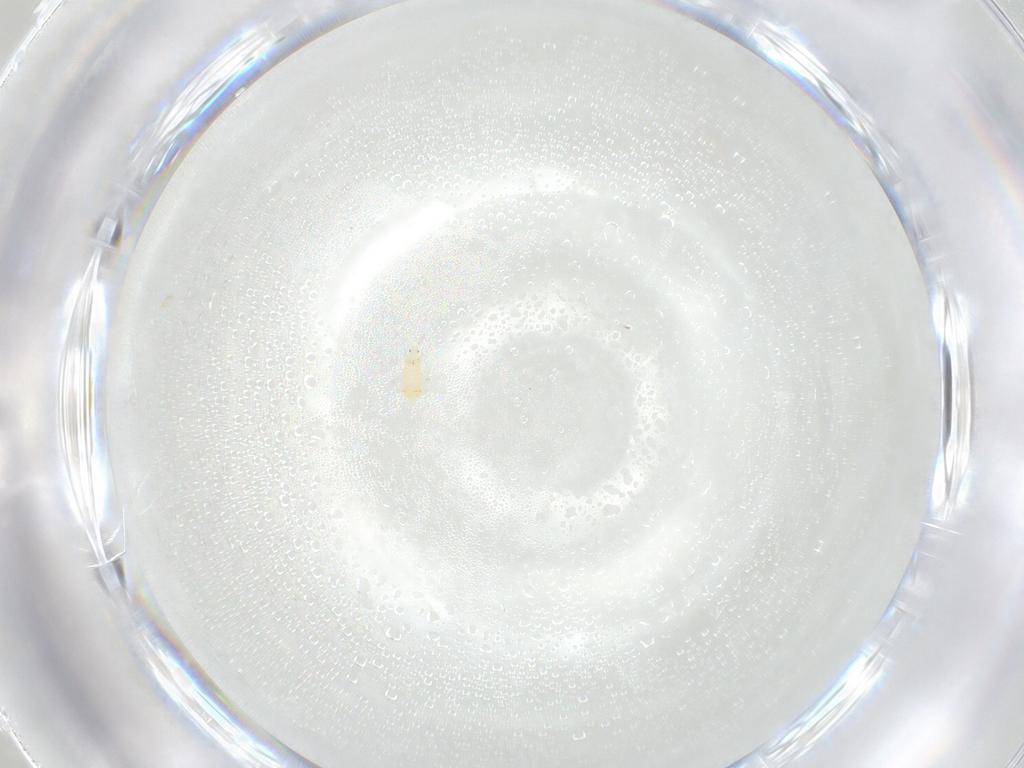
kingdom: Animalia
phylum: Arthropoda
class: Insecta
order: Thysanoptera
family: Thripidae
